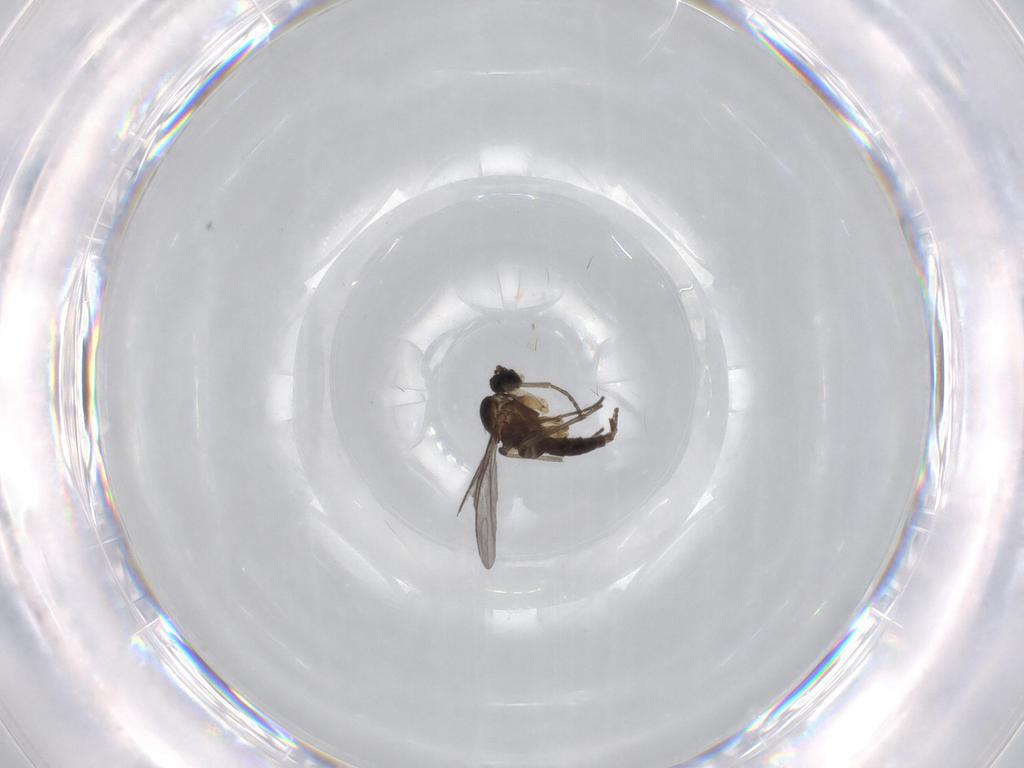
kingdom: Animalia
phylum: Arthropoda
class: Insecta
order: Diptera
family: Sciaridae
